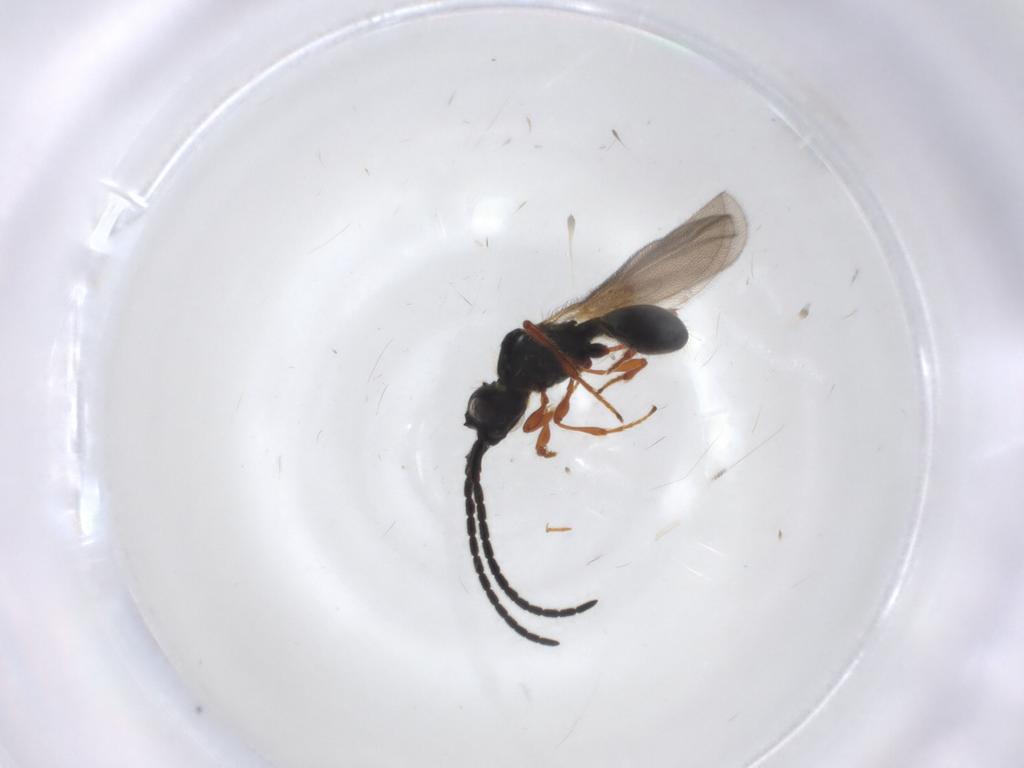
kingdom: Animalia
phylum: Arthropoda
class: Insecta
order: Hymenoptera
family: Diapriidae
